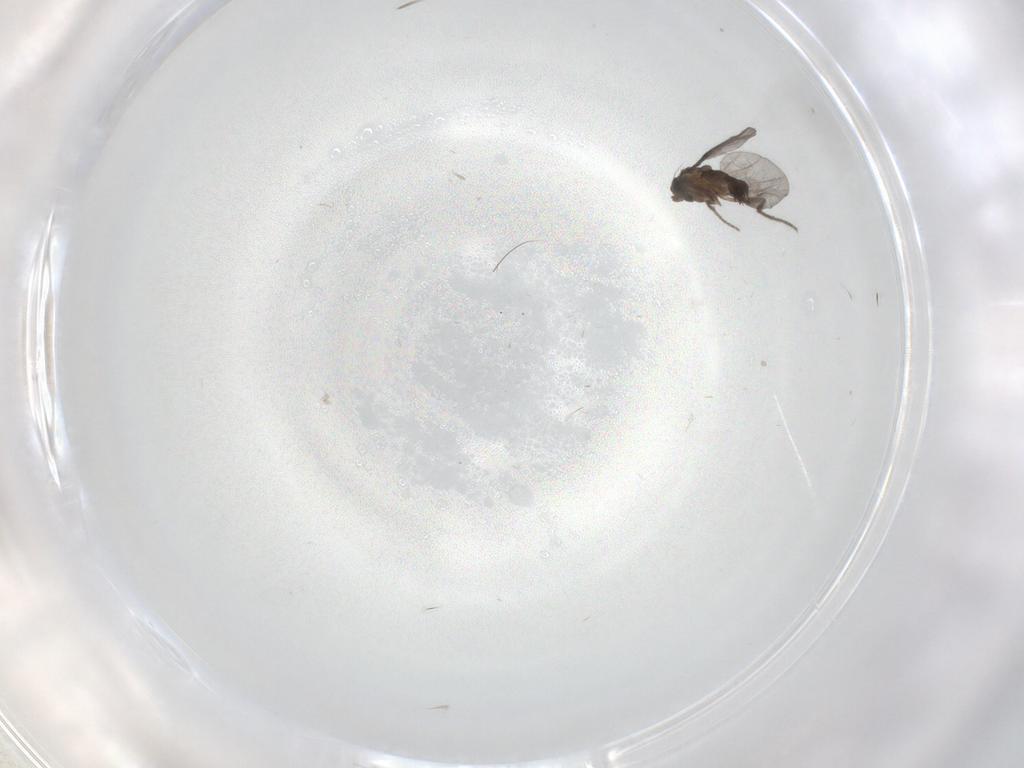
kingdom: Animalia
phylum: Arthropoda
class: Insecta
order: Diptera
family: Phoridae
